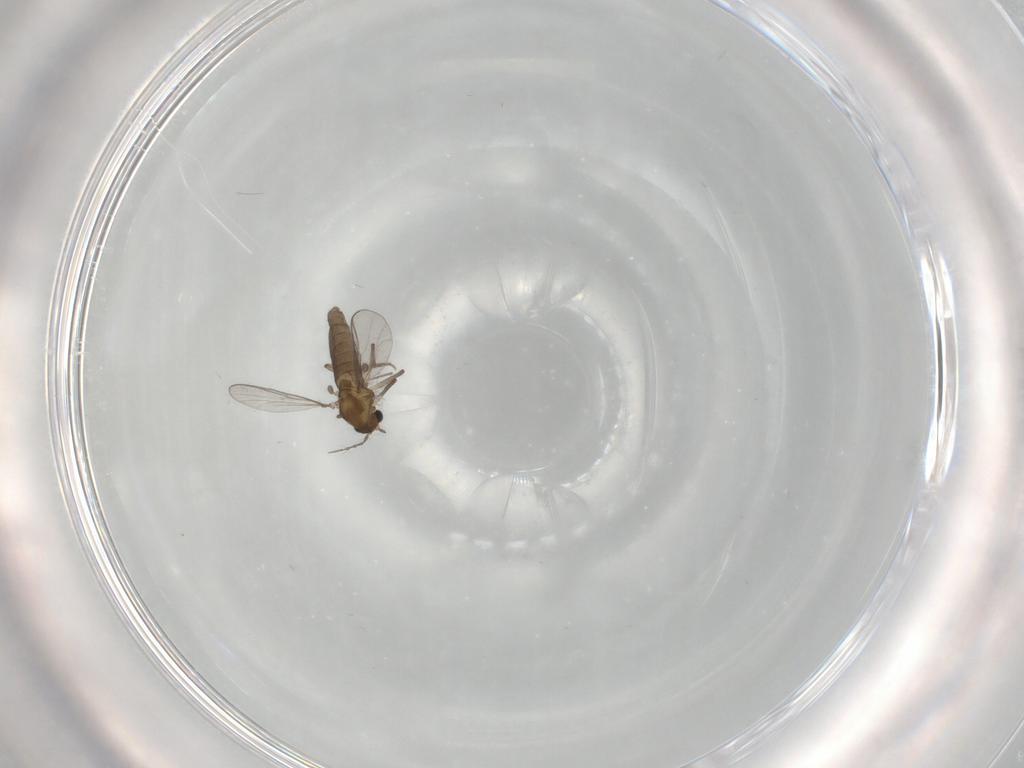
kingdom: Animalia
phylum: Arthropoda
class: Insecta
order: Diptera
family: Chironomidae
